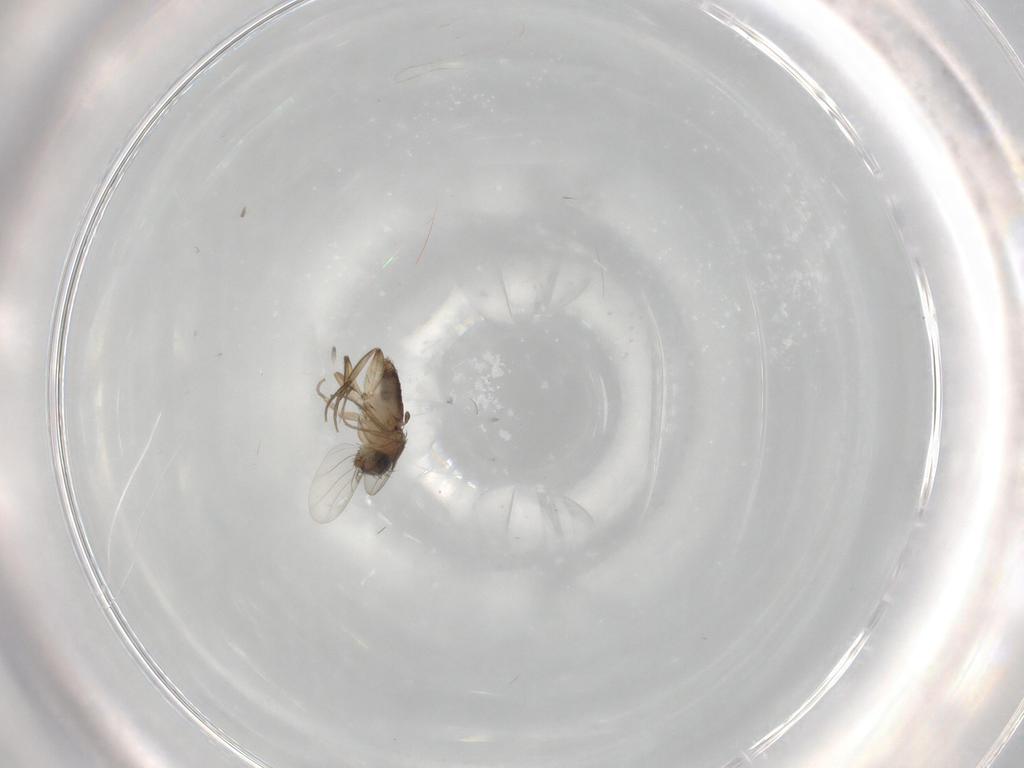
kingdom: Animalia
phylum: Arthropoda
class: Insecta
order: Diptera
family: Phoridae
